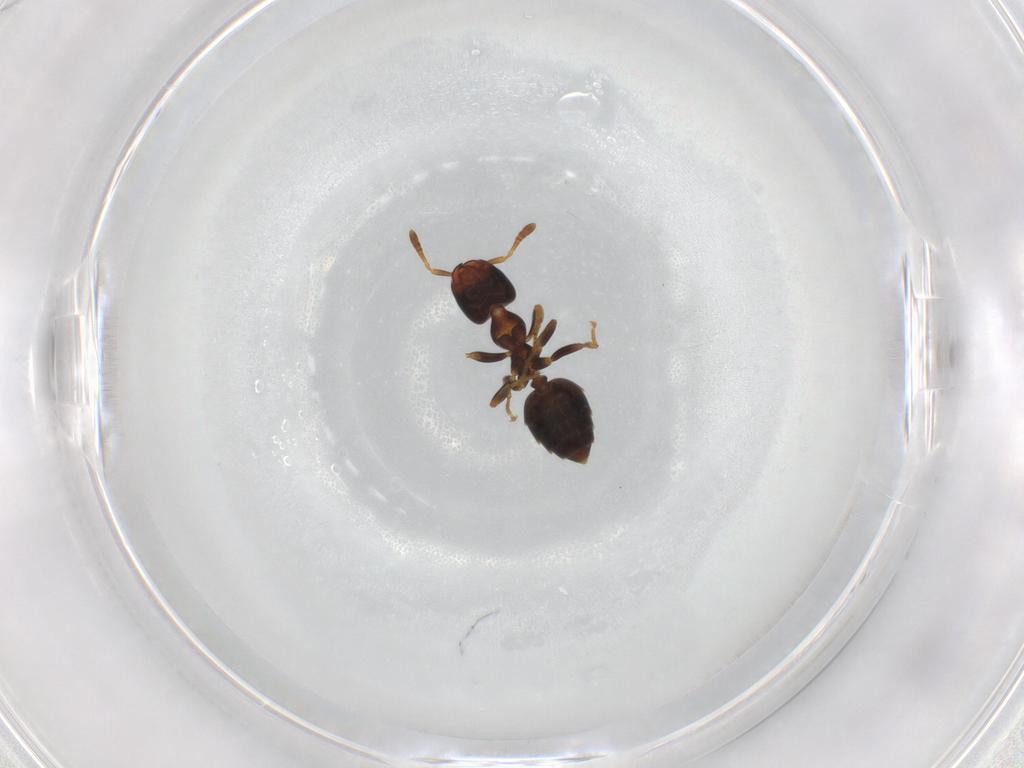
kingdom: Animalia
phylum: Arthropoda
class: Insecta
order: Hymenoptera
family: Formicidae
